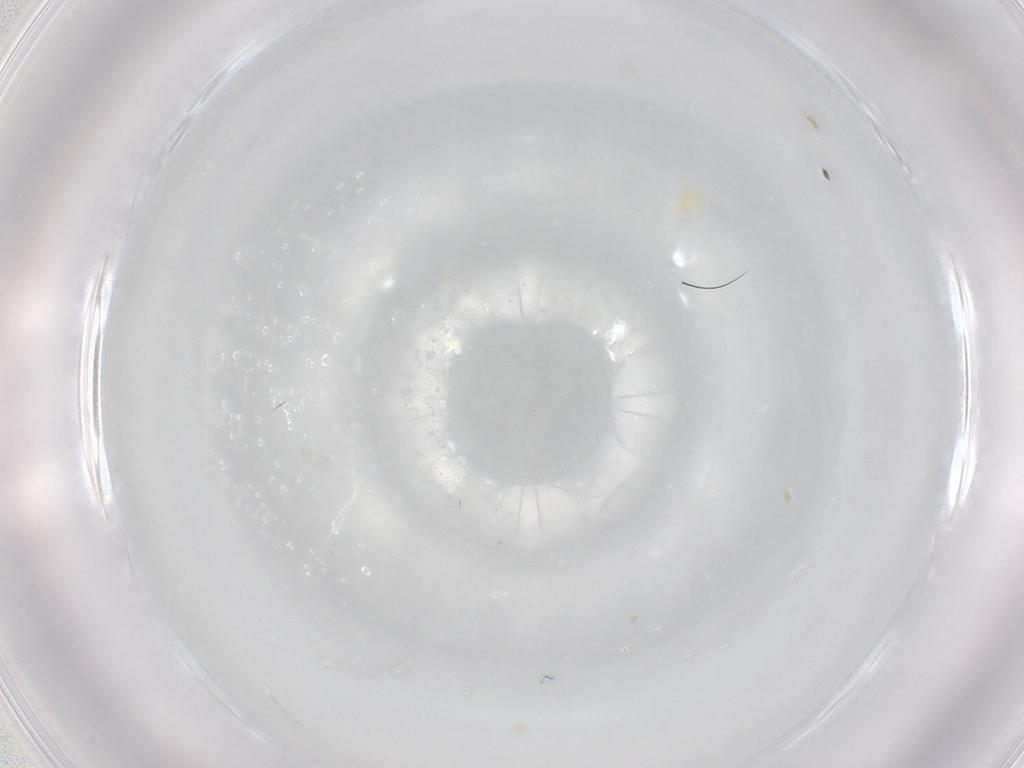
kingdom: Animalia
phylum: Arthropoda
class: Arachnida
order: Trombidiformes
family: Eupodidae
